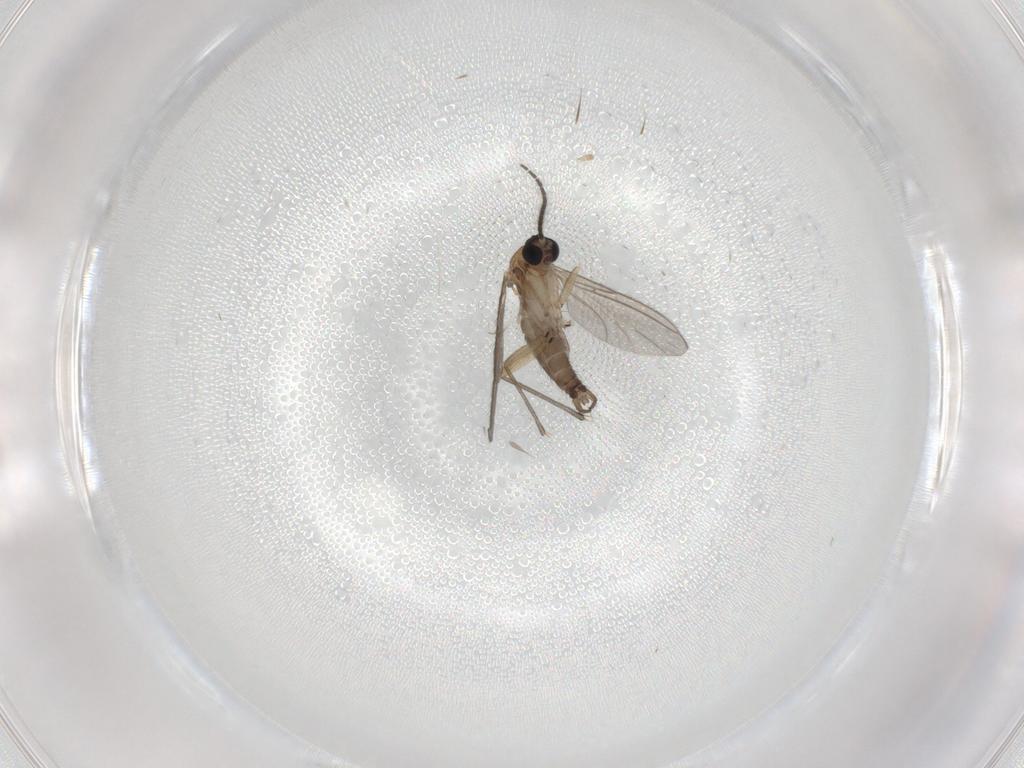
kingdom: Animalia
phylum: Arthropoda
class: Insecta
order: Diptera
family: Sciaridae
